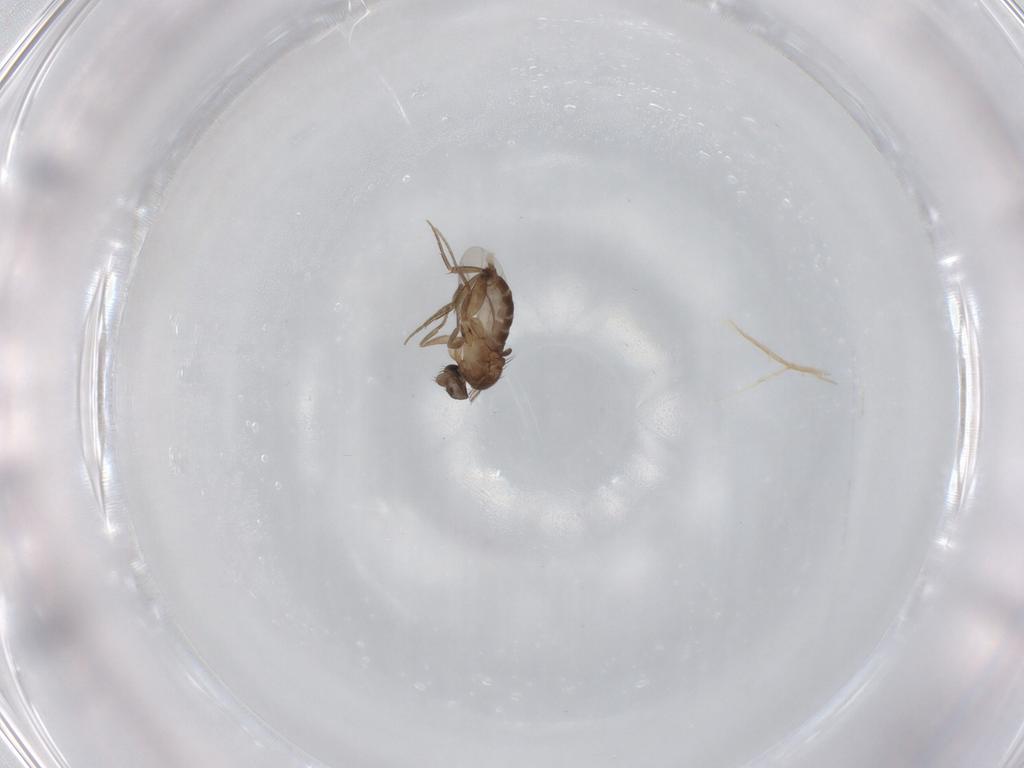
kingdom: Animalia
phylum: Arthropoda
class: Insecta
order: Diptera
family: Phoridae
